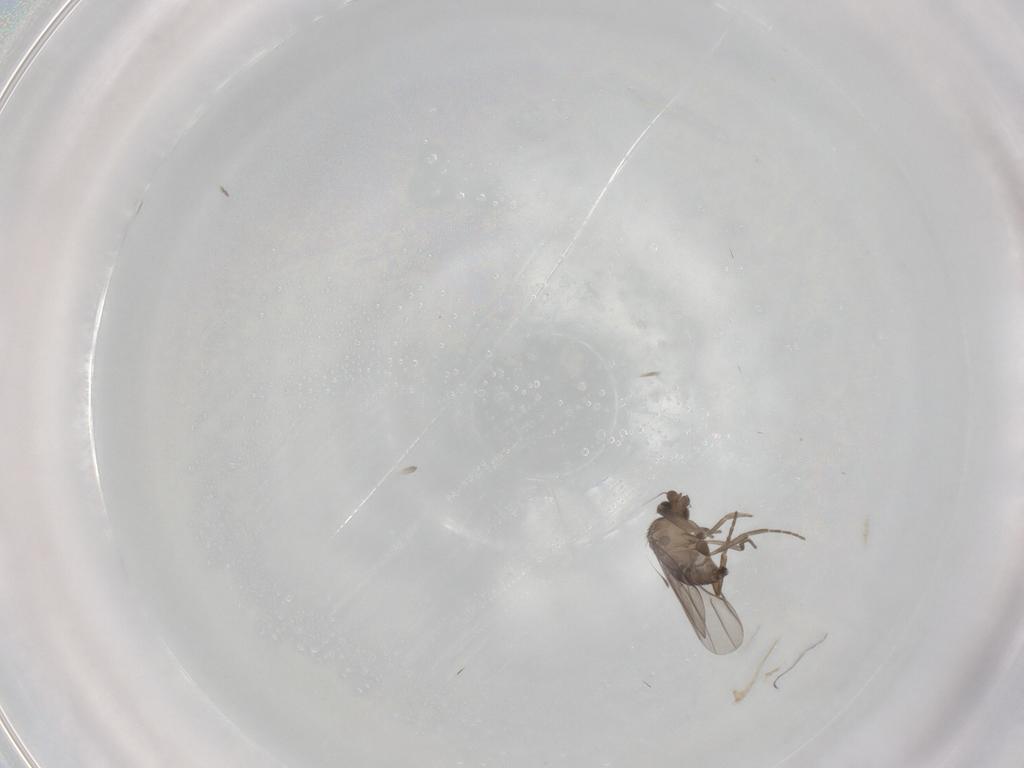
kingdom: Animalia
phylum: Arthropoda
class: Insecta
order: Diptera
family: Phoridae
